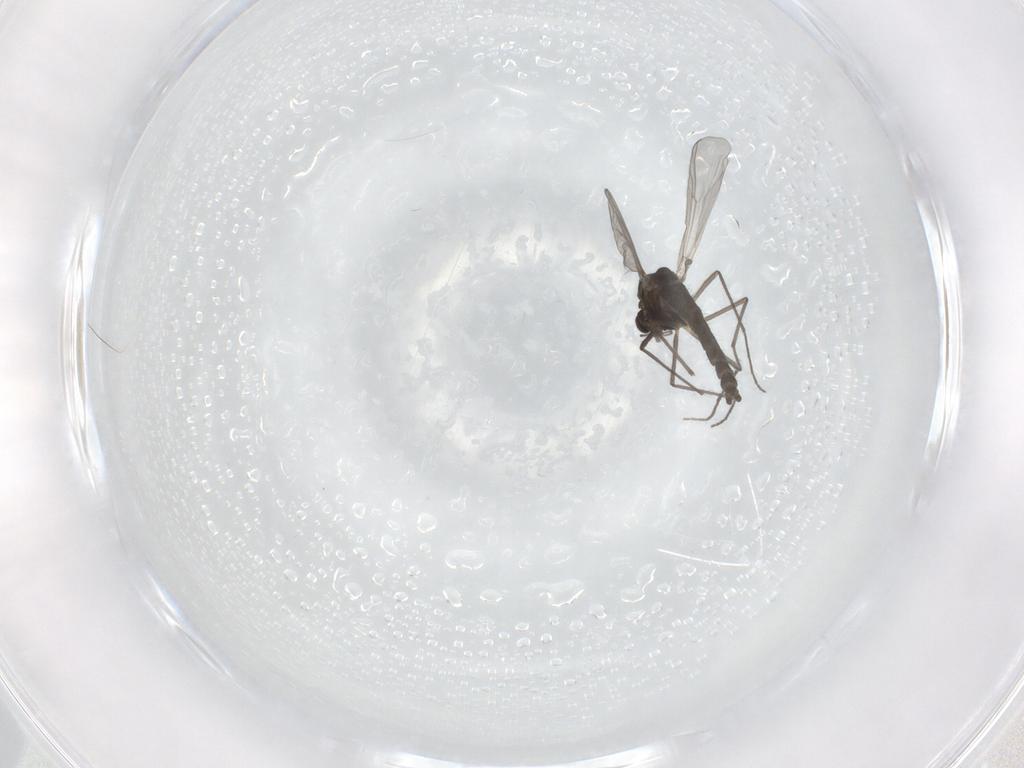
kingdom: Animalia
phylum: Arthropoda
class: Insecta
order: Diptera
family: Chironomidae
